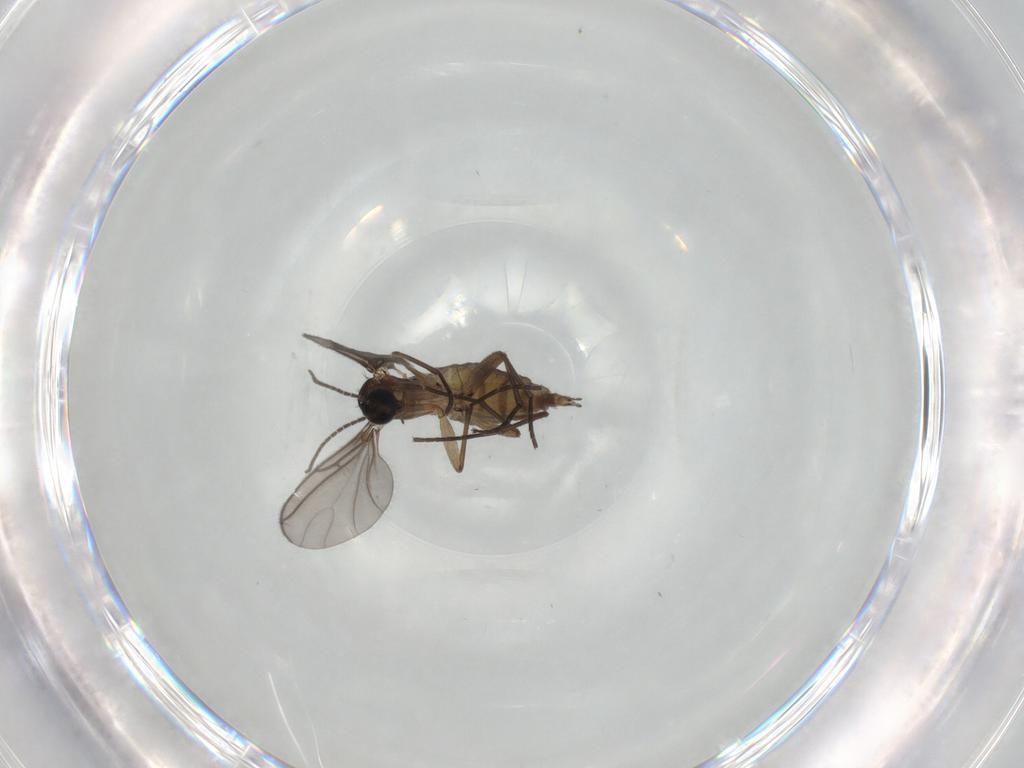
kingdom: Animalia
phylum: Arthropoda
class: Insecta
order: Diptera
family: Sciaridae
